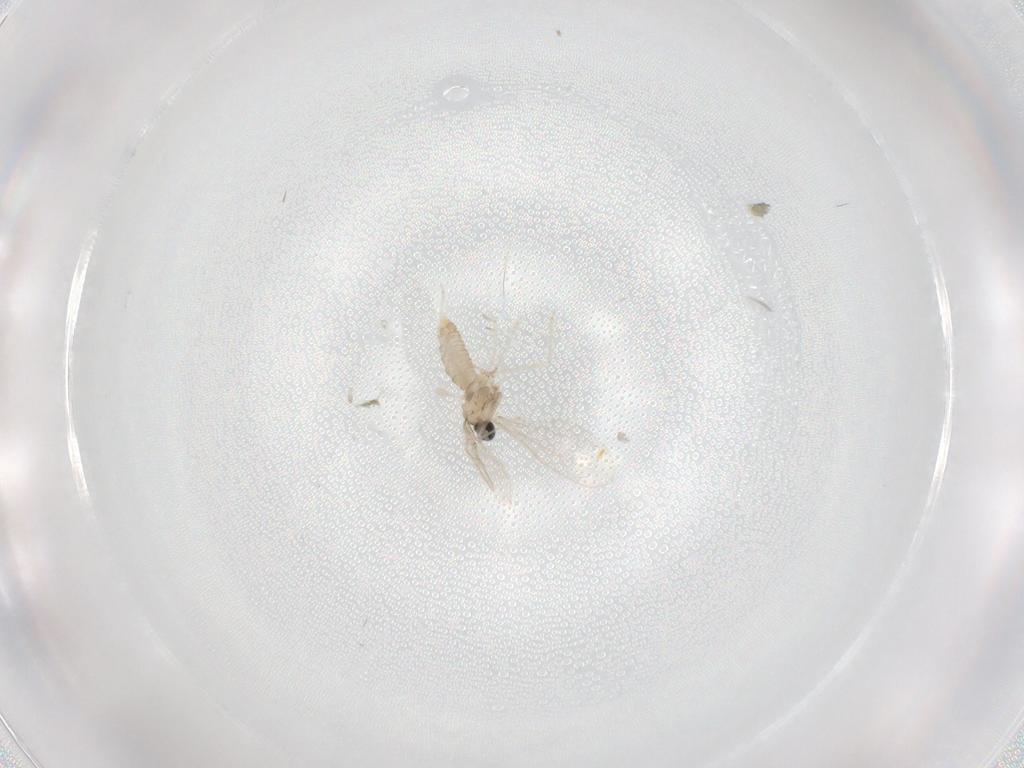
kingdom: Animalia
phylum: Arthropoda
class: Insecta
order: Diptera
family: Cecidomyiidae
